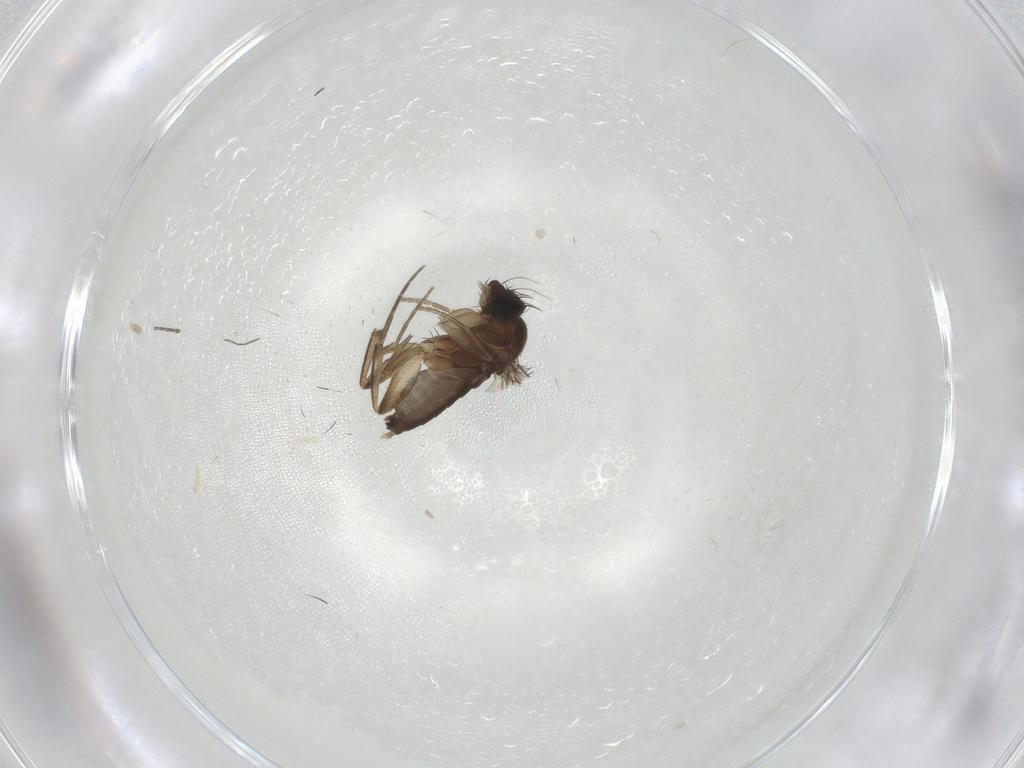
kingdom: Animalia
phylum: Arthropoda
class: Insecta
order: Diptera
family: Phoridae
